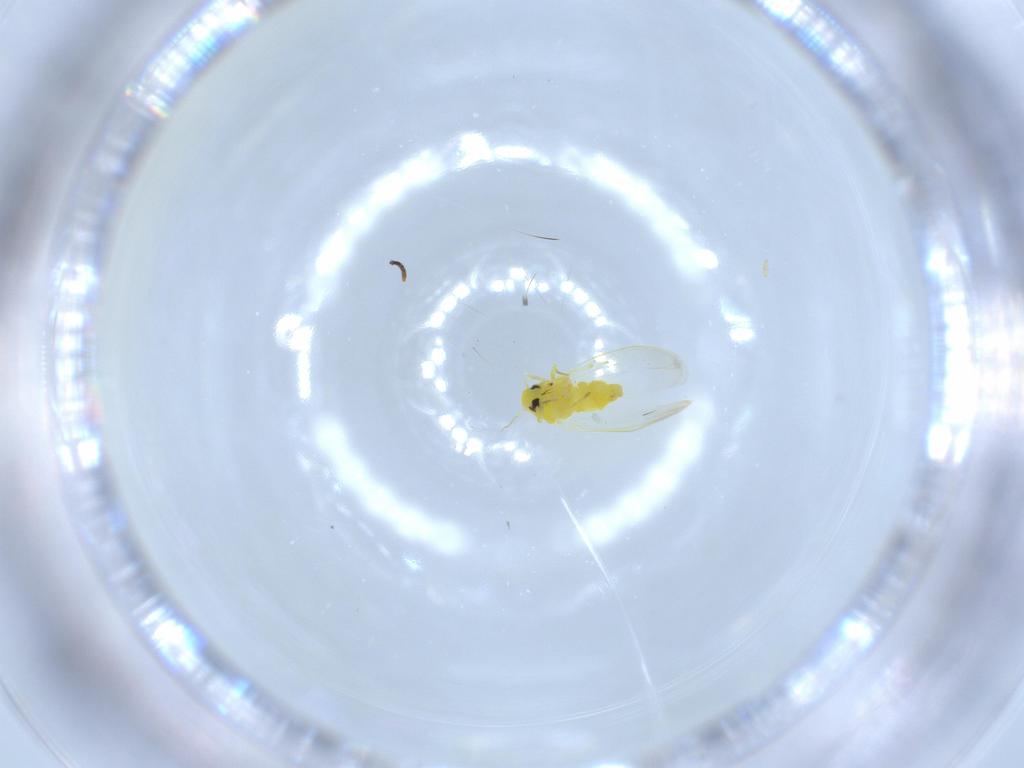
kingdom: Animalia
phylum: Arthropoda
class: Insecta
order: Hemiptera
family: Aleyrodidae
